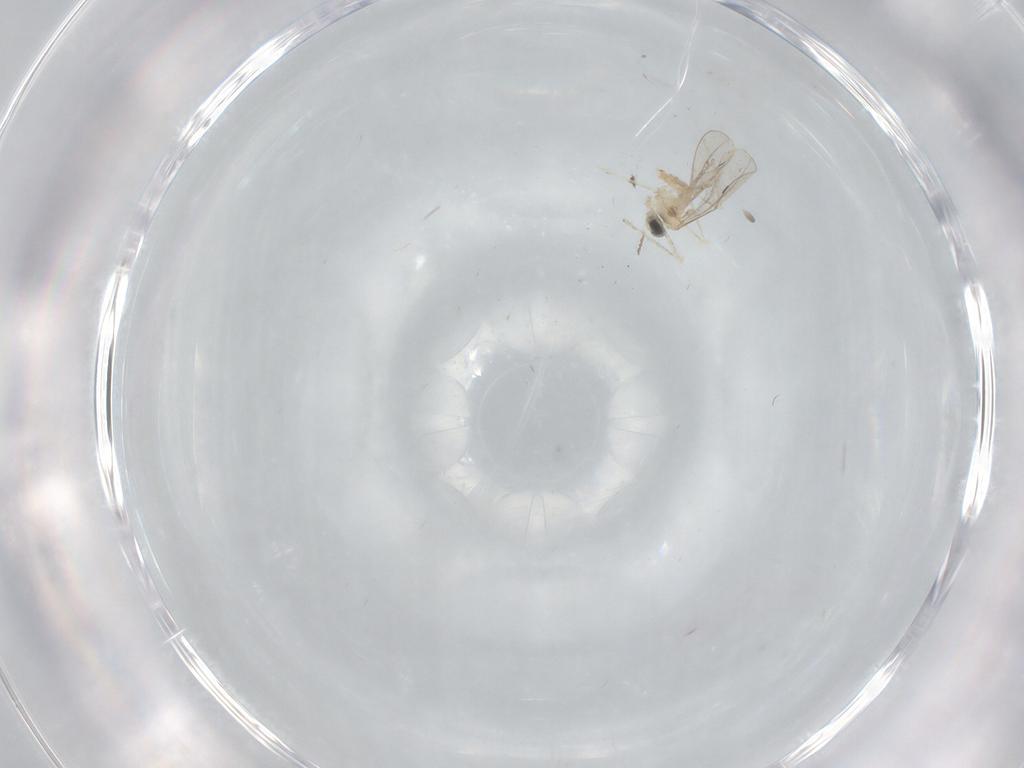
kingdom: Animalia
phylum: Arthropoda
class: Insecta
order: Diptera
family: Cecidomyiidae
